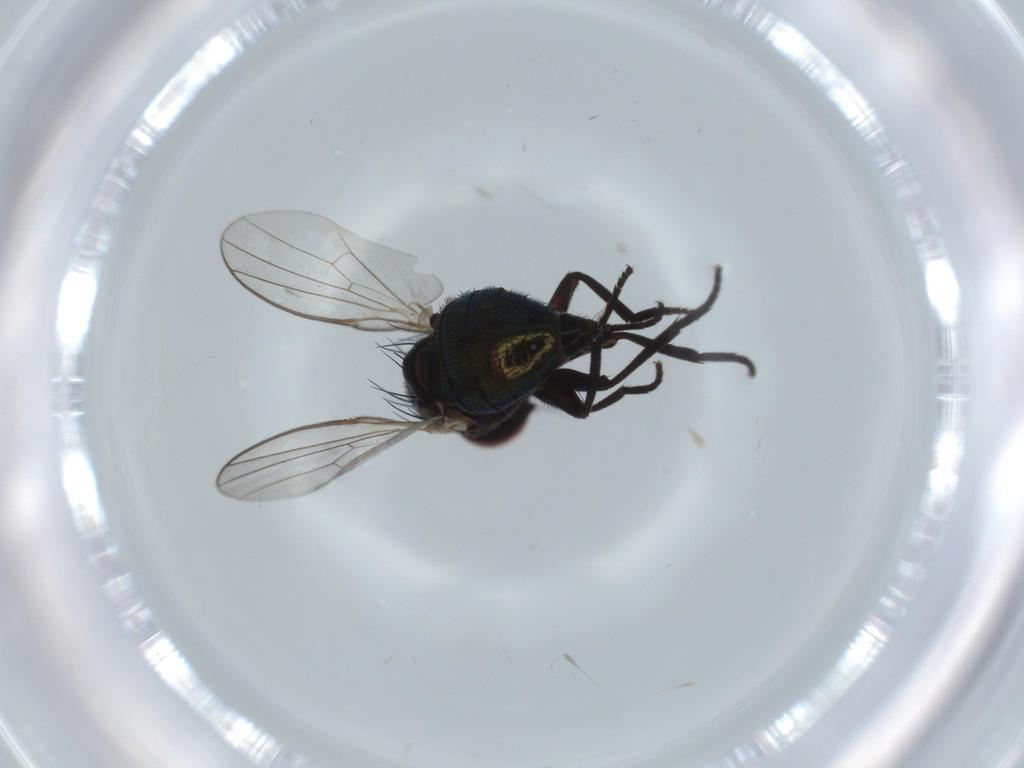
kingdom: Animalia
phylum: Arthropoda
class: Insecta
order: Diptera
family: Agromyzidae
